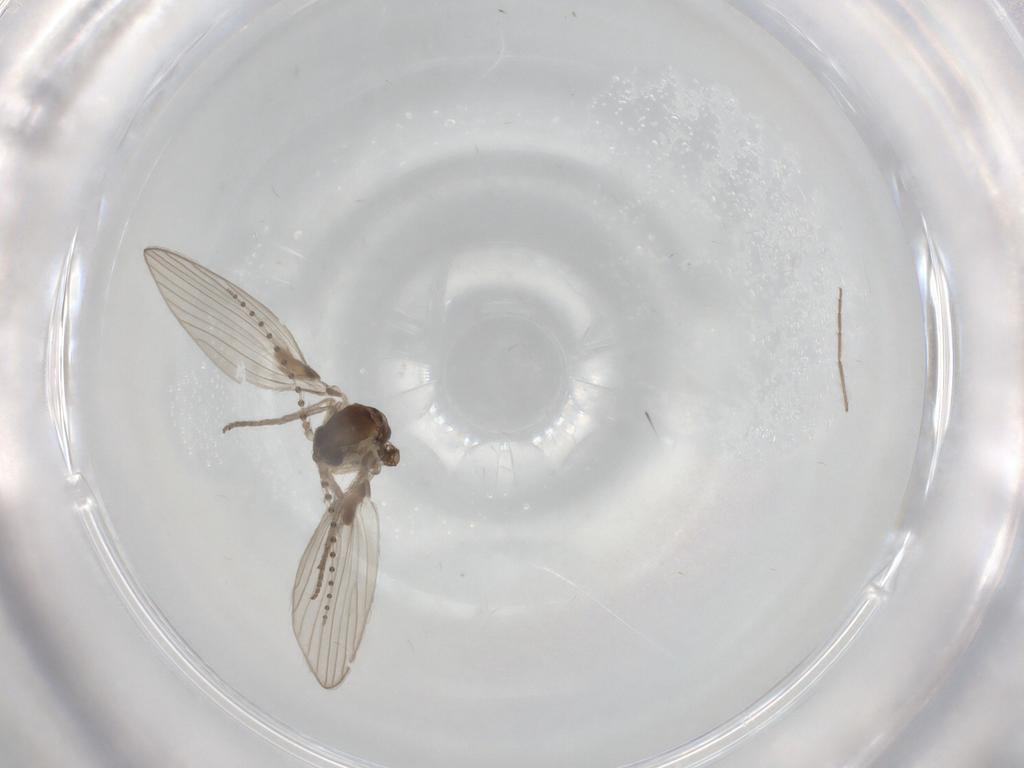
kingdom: Animalia
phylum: Arthropoda
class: Insecta
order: Diptera
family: Psychodidae
